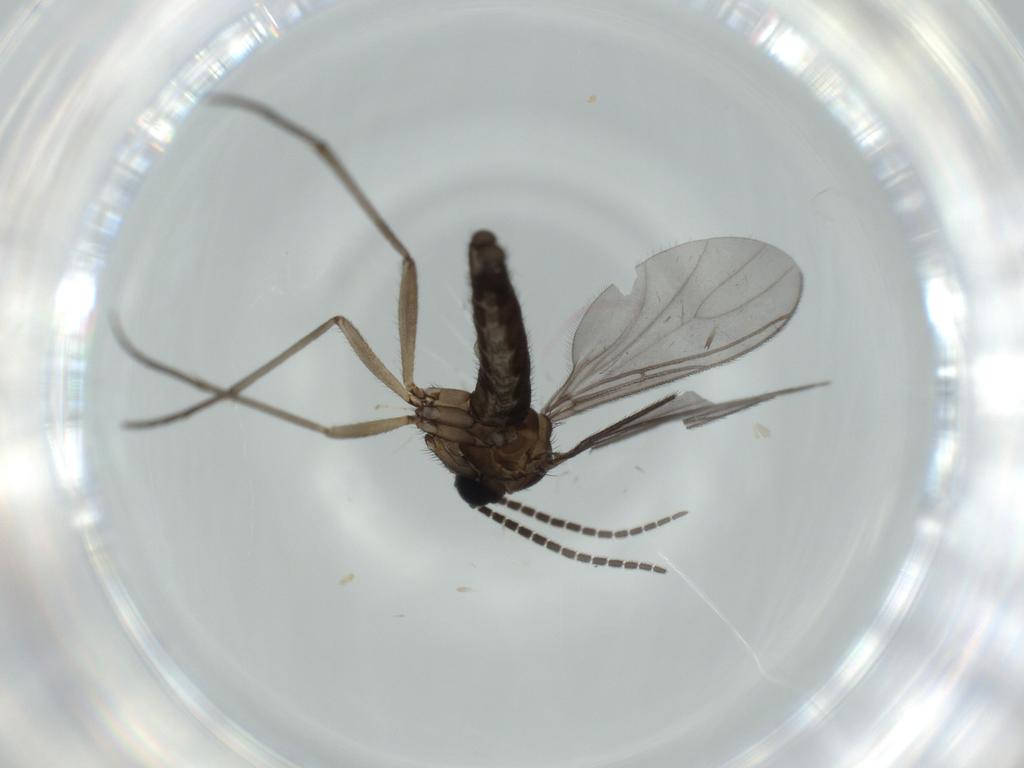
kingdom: Animalia
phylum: Arthropoda
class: Insecta
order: Diptera
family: Sciaridae
